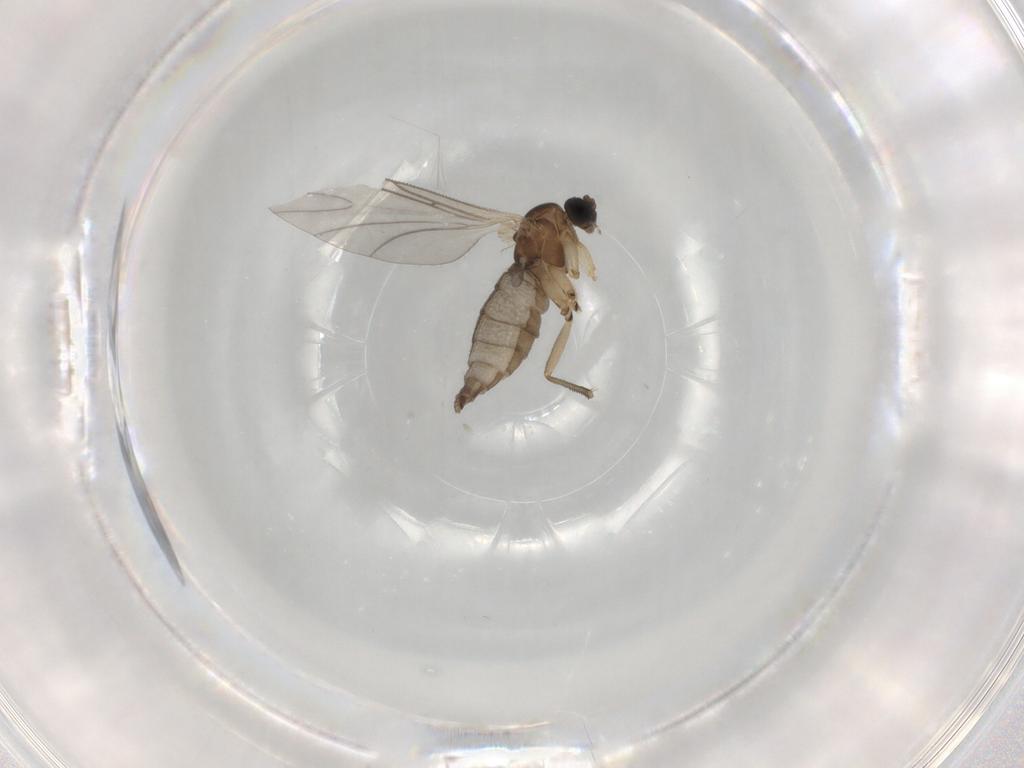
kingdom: Animalia
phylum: Arthropoda
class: Insecta
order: Diptera
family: Sciaridae
